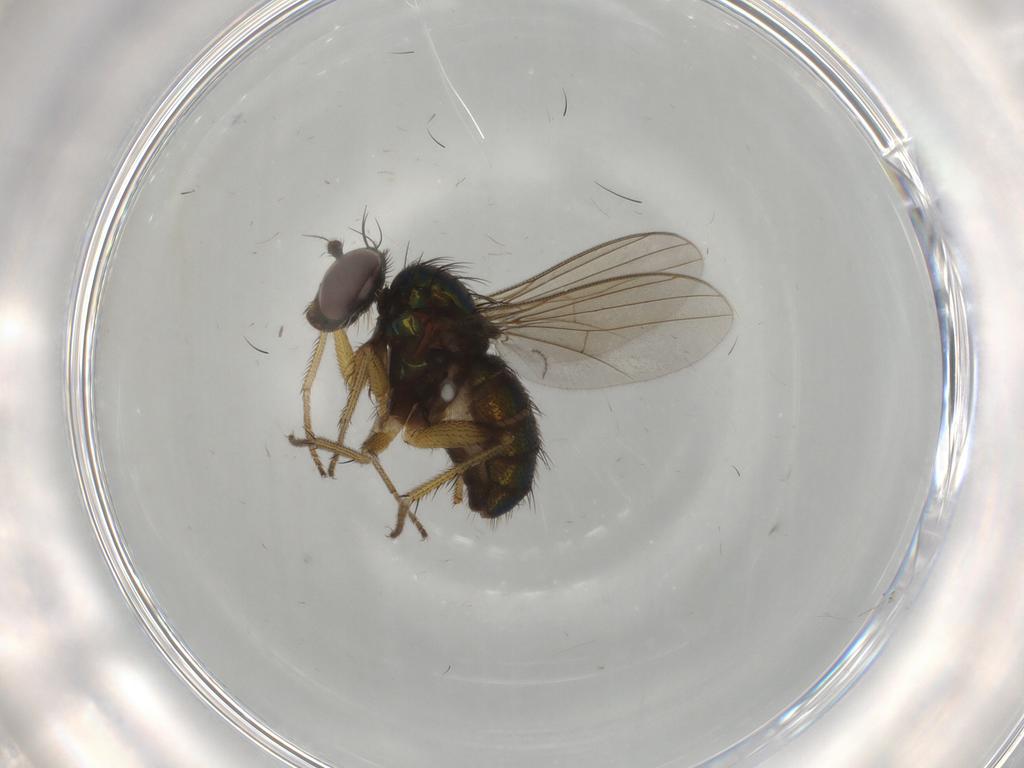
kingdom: Animalia
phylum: Arthropoda
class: Insecta
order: Diptera
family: Dolichopodidae
